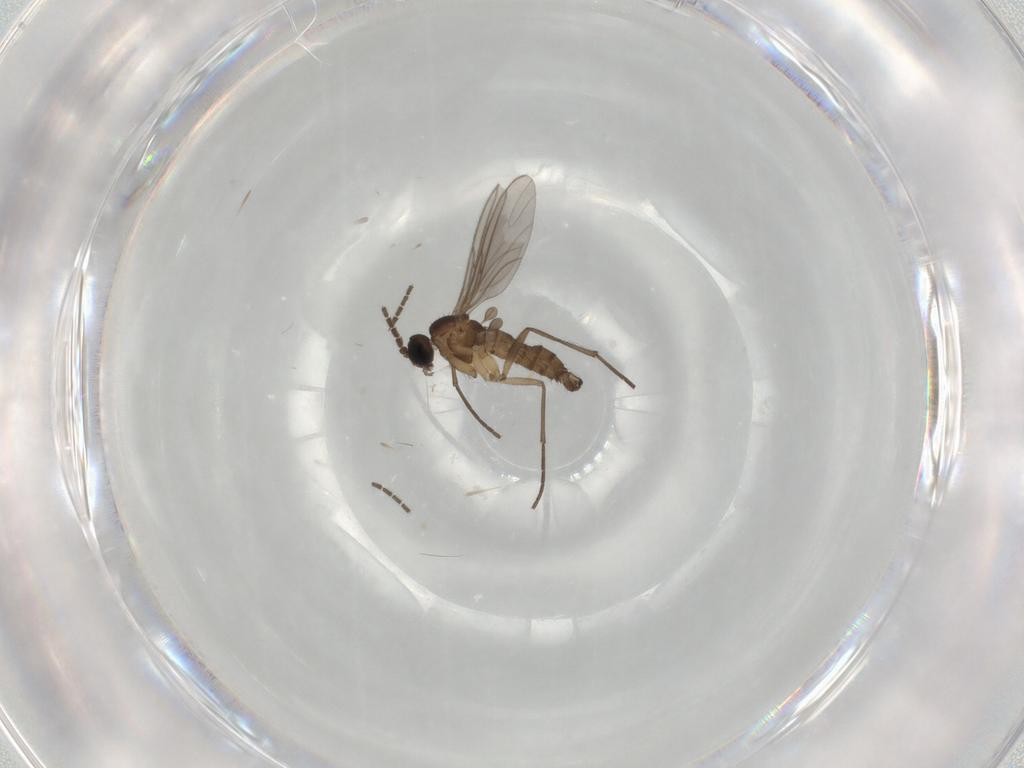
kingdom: Animalia
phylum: Arthropoda
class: Insecta
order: Diptera
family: Sciaridae
